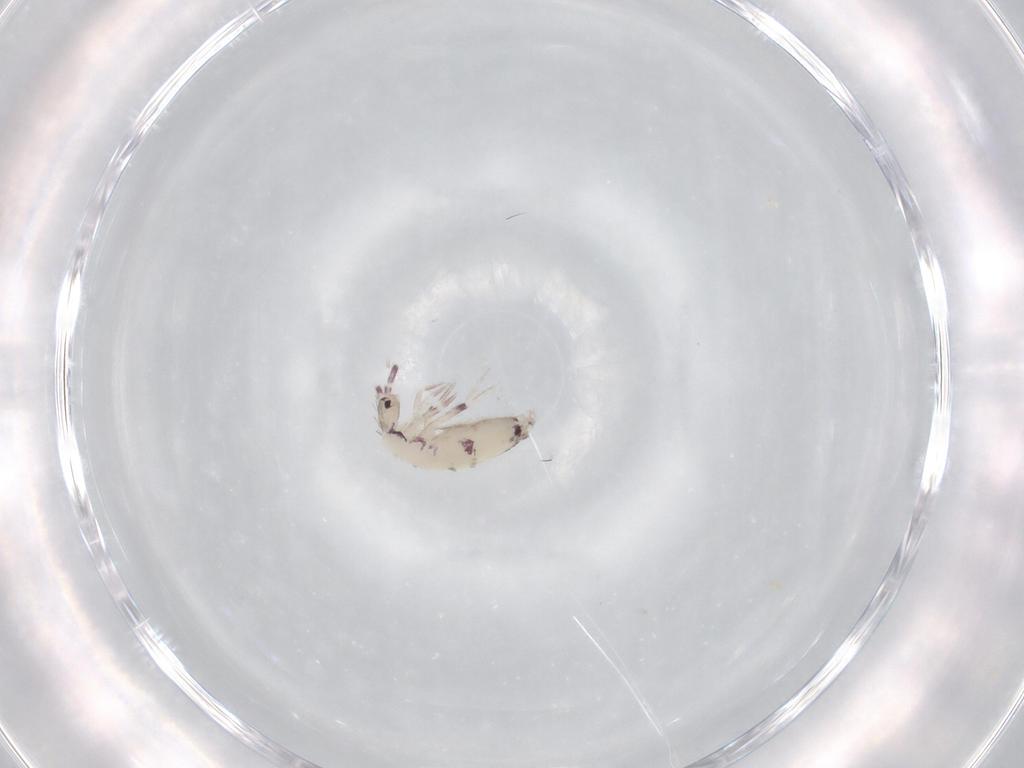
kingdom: Animalia
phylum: Arthropoda
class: Collembola
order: Poduromorpha
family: Hypogastruridae
